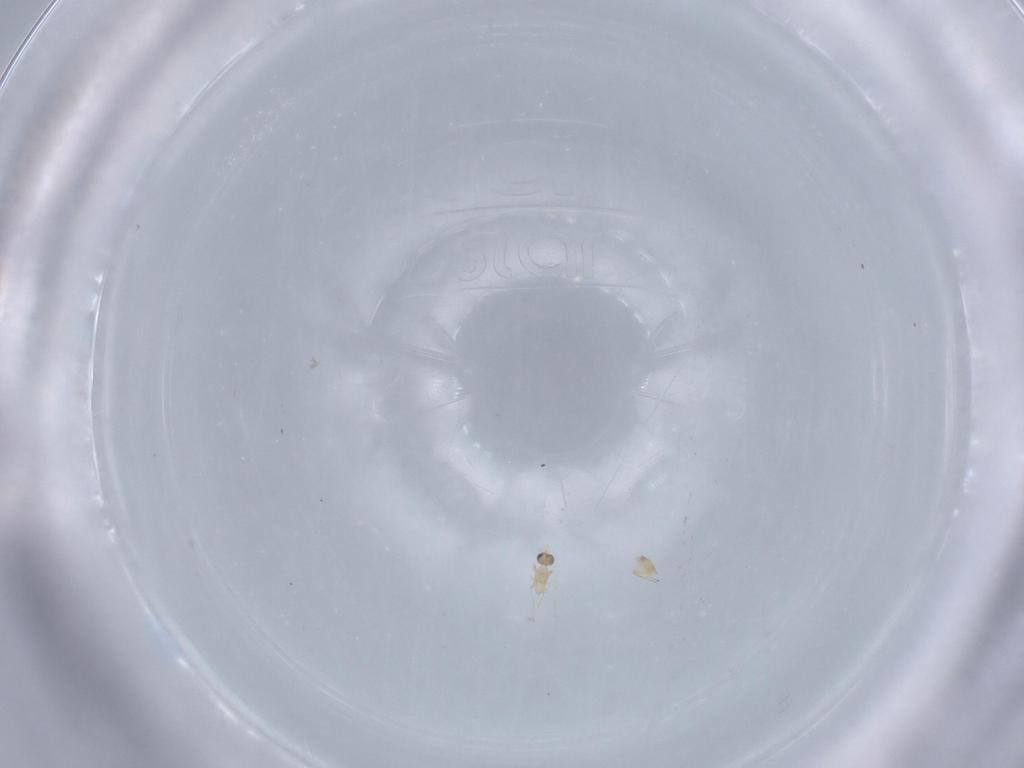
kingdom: Animalia
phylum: Arthropoda
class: Insecta
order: Hymenoptera
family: Mymaridae
